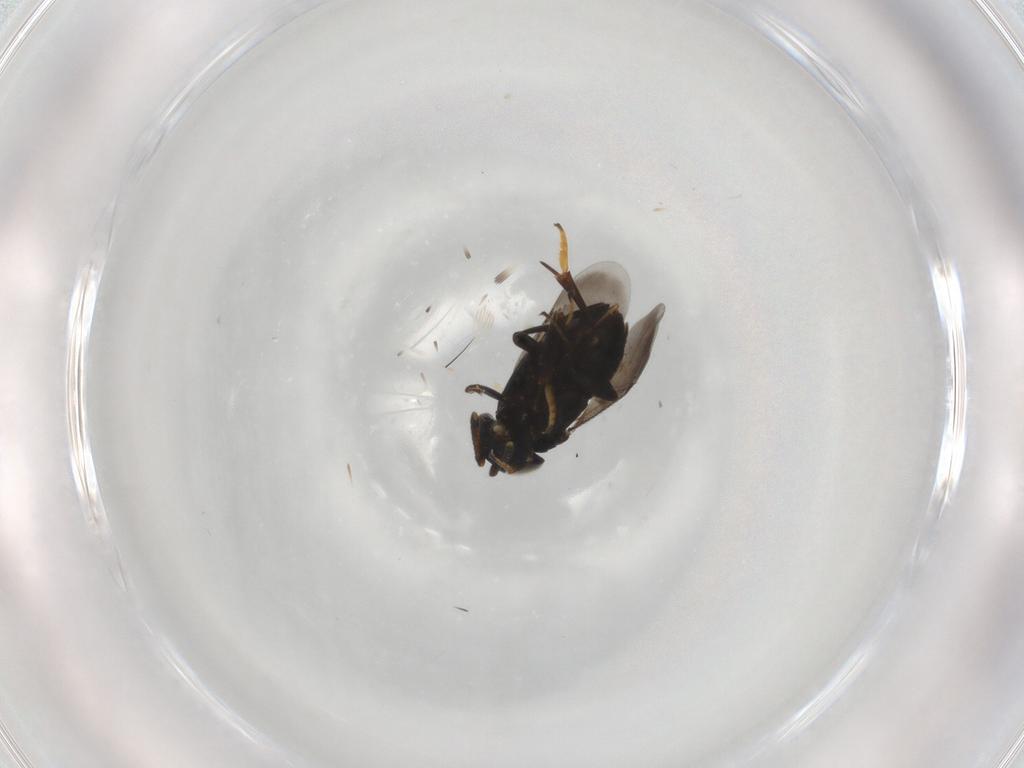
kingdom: Animalia
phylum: Arthropoda
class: Insecta
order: Hymenoptera
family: Encyrtidae
